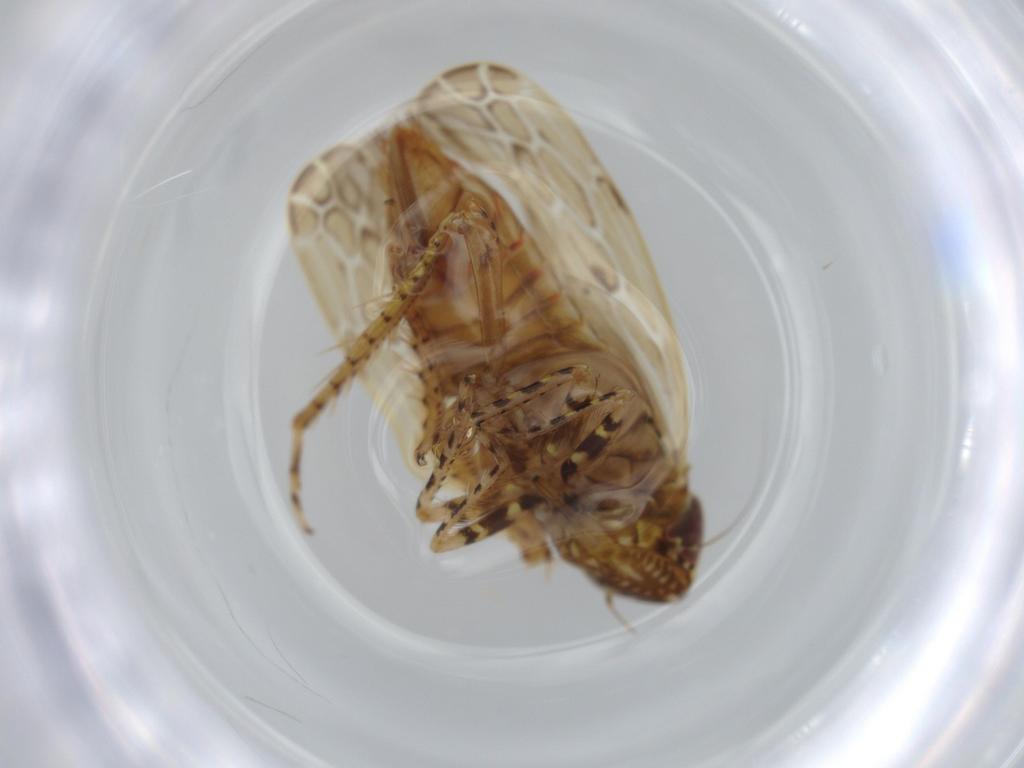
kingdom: Animalia
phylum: Arthropoda
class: Insecta
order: Hemiptera
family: Cicadellidae
